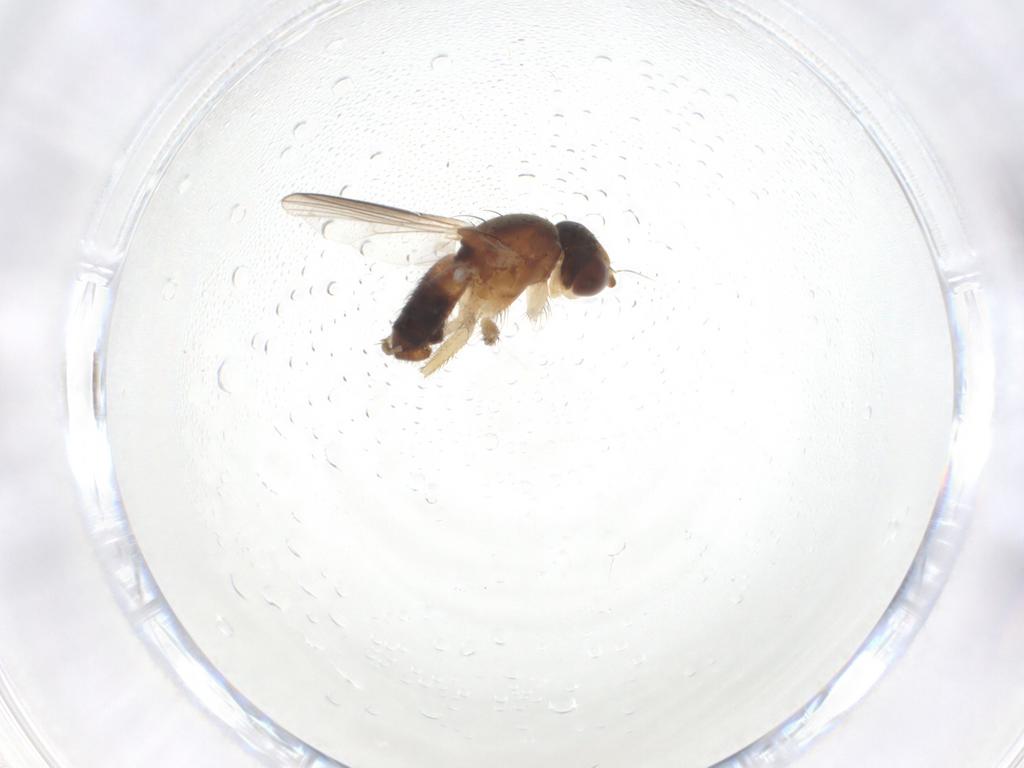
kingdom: Animalia
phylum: Arthropoda
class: Insecta
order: Diptera
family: Heleomyzidae
